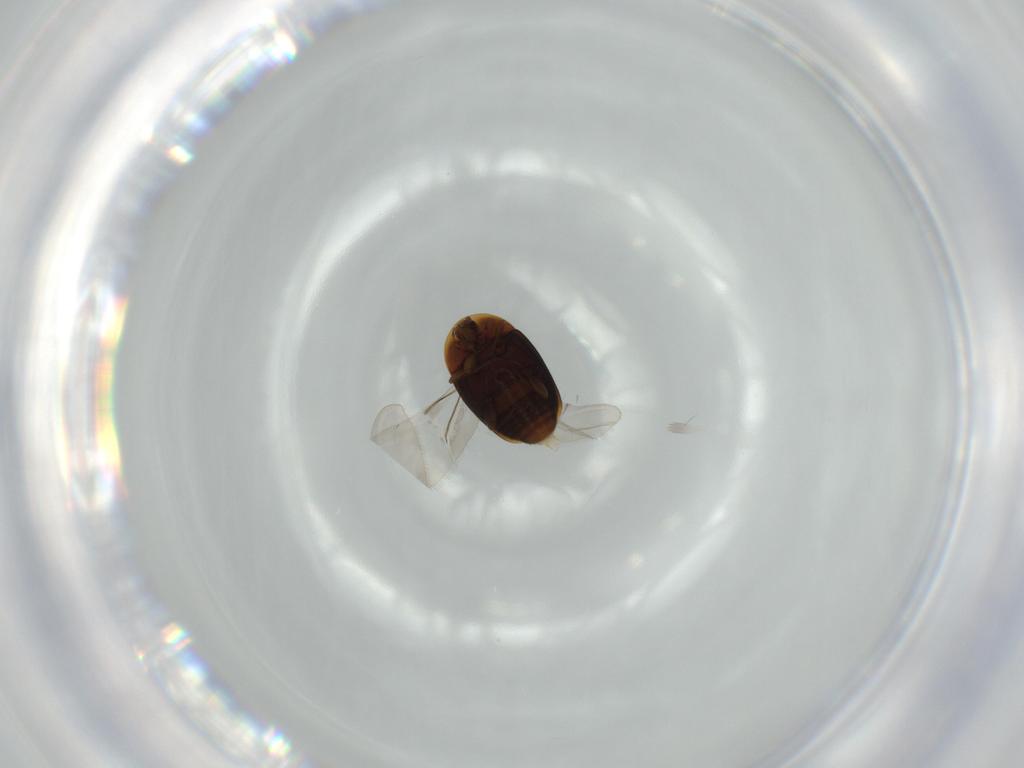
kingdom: Animalia
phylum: Arthropoda
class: Insecta
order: Coleoptera
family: Corylophidae
